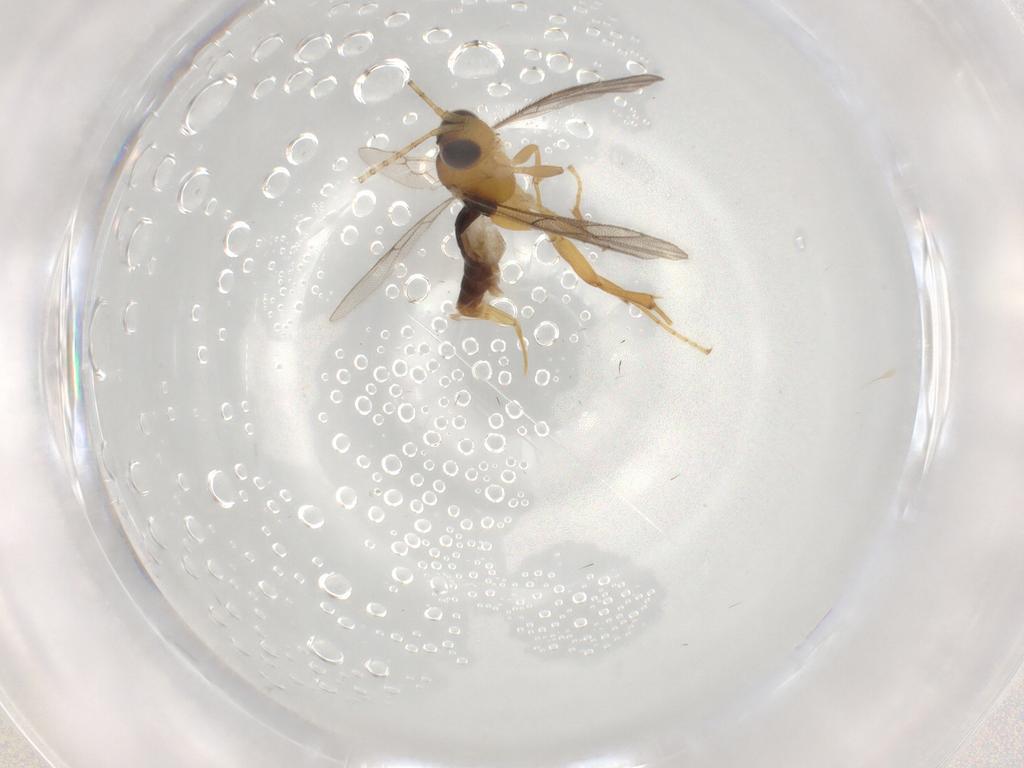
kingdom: Animalia
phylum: Arthropoda
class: Insecta
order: Hymenoptera
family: Ichneumonidae
